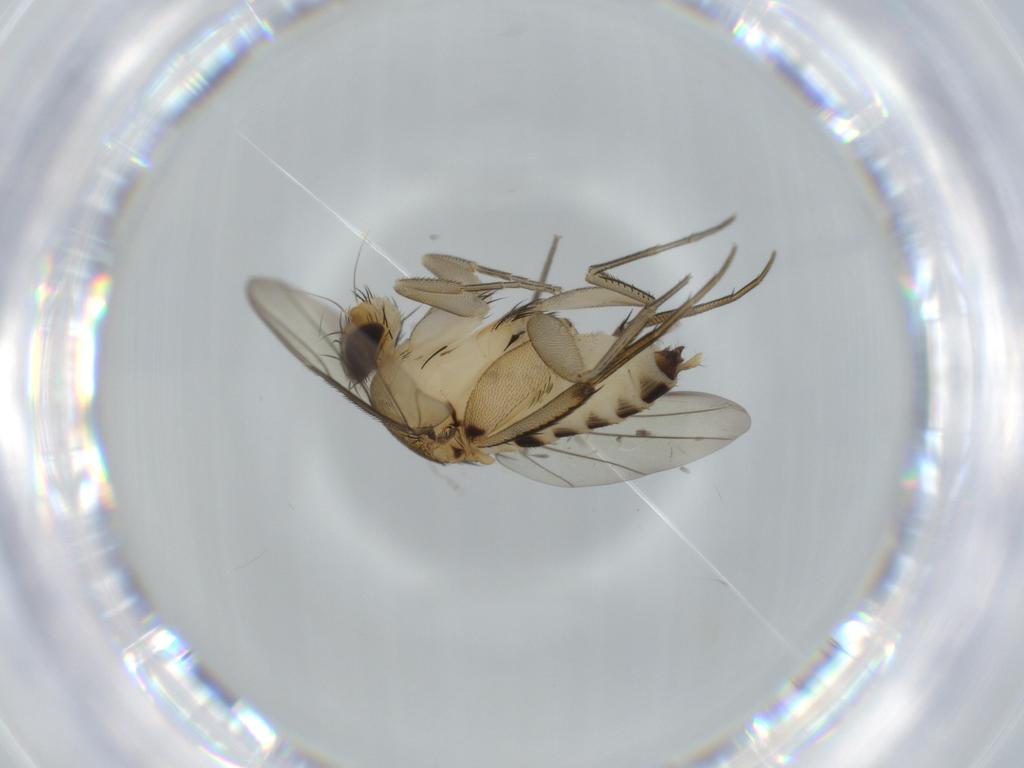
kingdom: Animalia
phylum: Arthropoda
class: Insecta
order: Diptera
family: Phoridae
